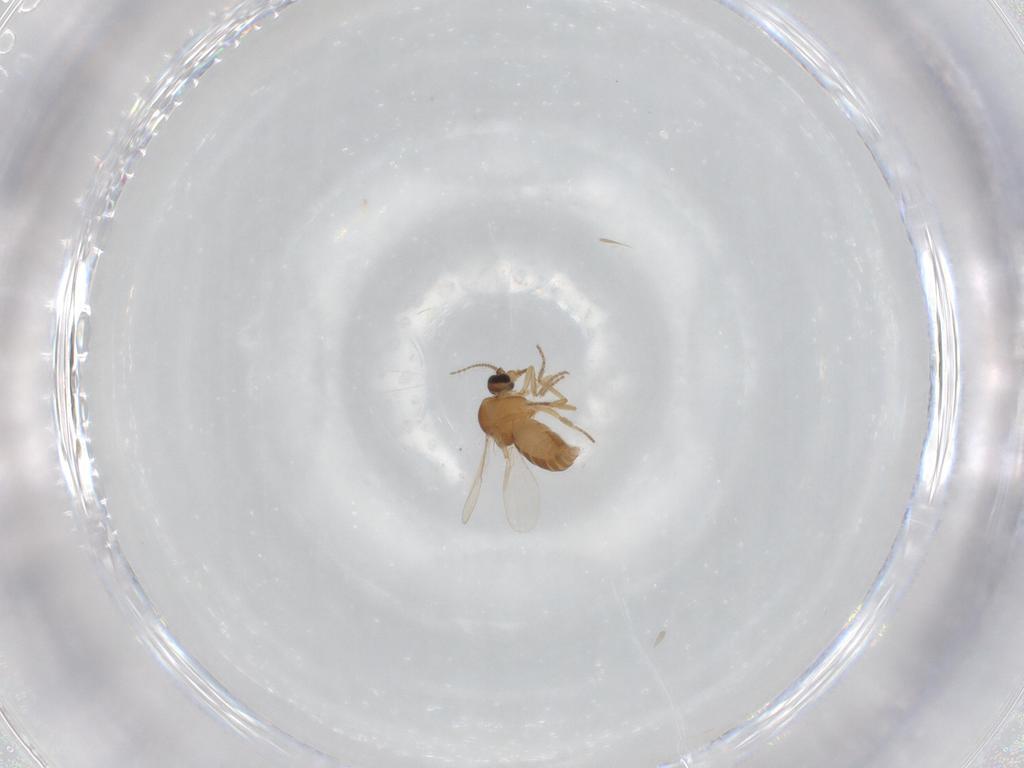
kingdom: Animalia
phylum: Arthropoda
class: Insecta
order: Diptera
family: Ceratopogonidae
